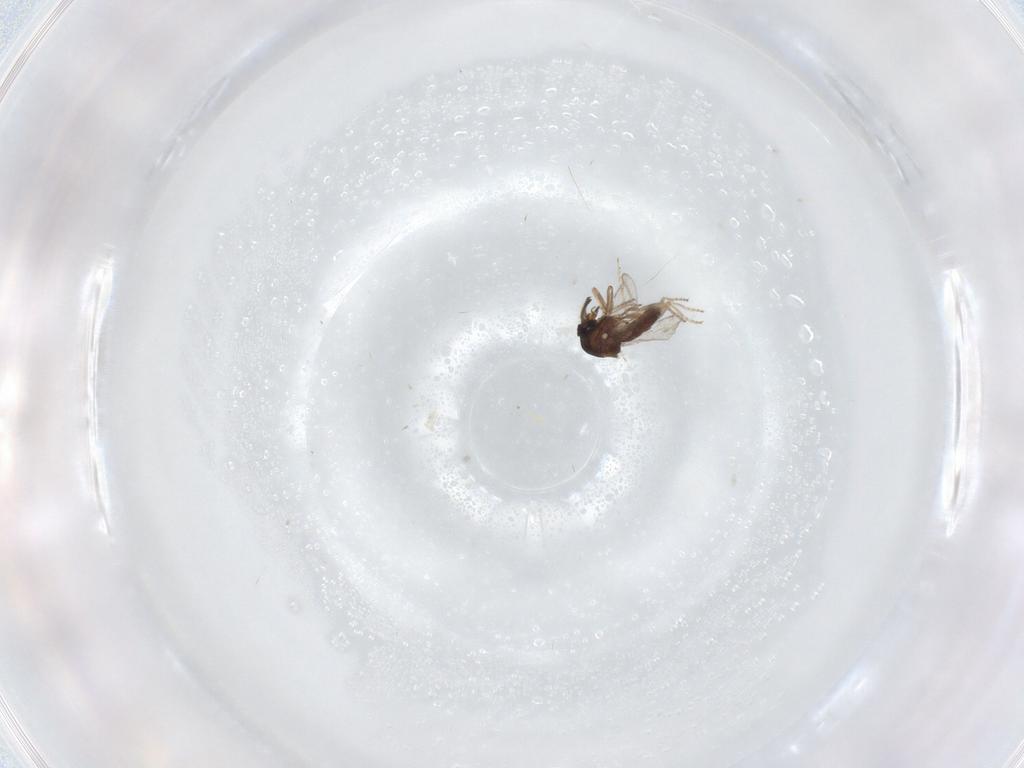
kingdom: Animalia
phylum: Arthropoda
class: Insecta
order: Diptera
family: Ceratopogonidae
